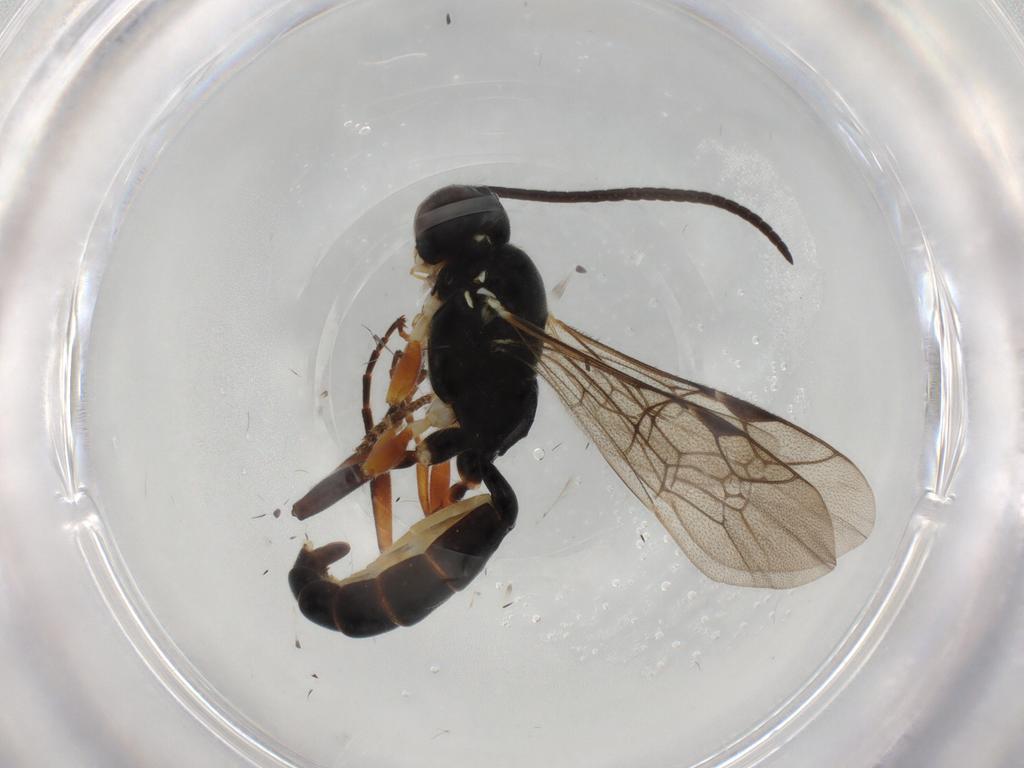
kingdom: Animalia
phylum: Arthropoda
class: Insecta
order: Hymenoptera
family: Ichneumonidae
